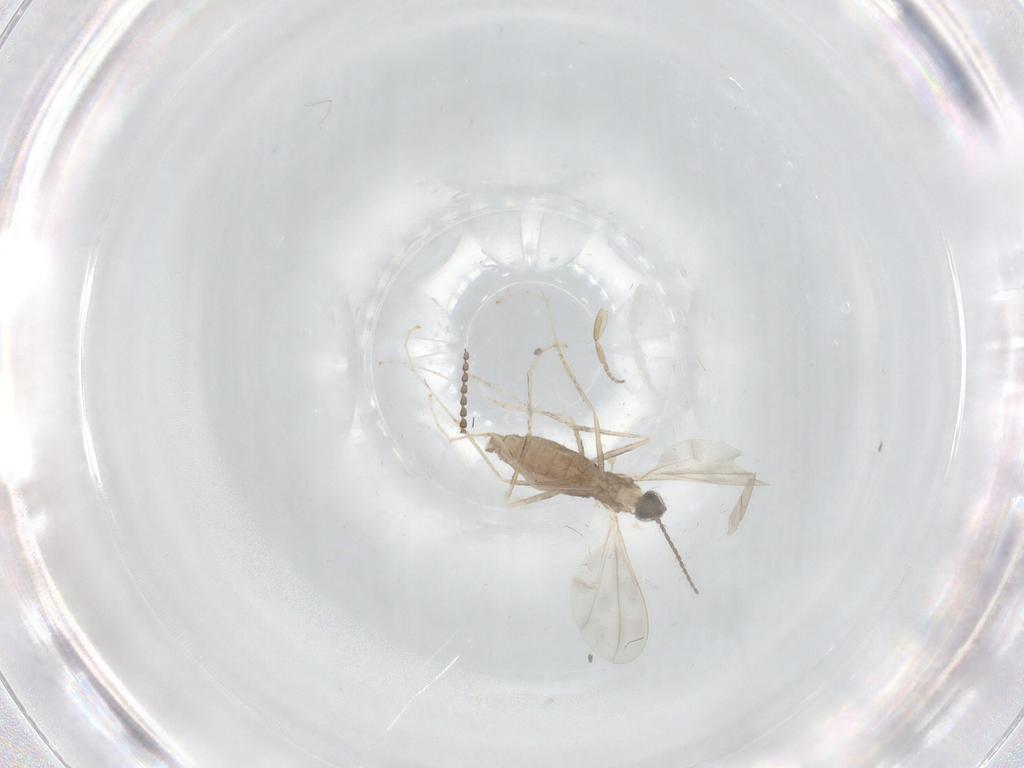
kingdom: Animalia
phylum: Arthropoda
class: Insecta
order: Diptera
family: Cecidomyiidae
